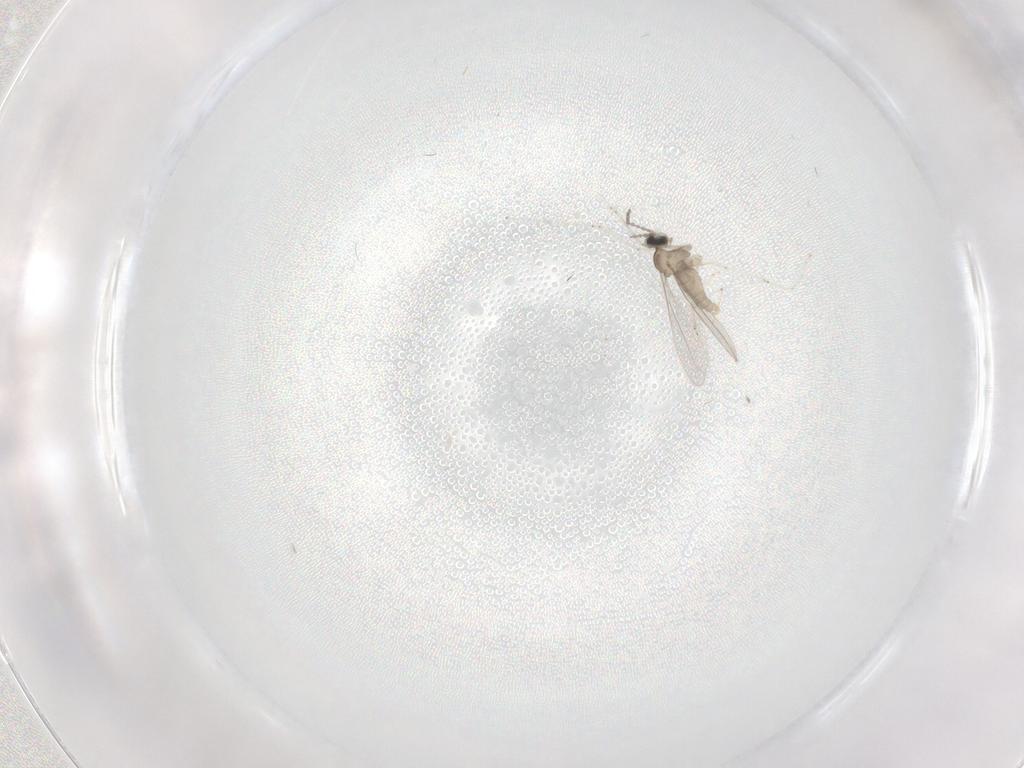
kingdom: Animalia
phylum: Arthropoda
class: Insecta
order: Diptera
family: Cecidomyiidae
